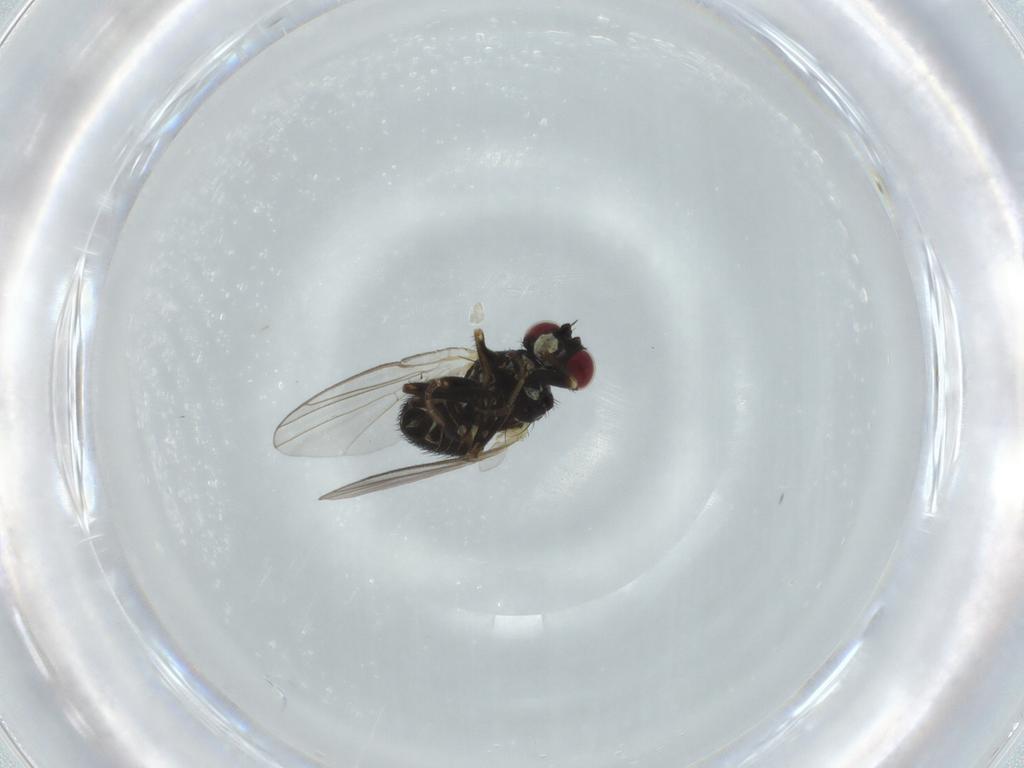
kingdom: Animalia
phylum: Arthropoda
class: Insecta
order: Diptera
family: Agromyzidae
